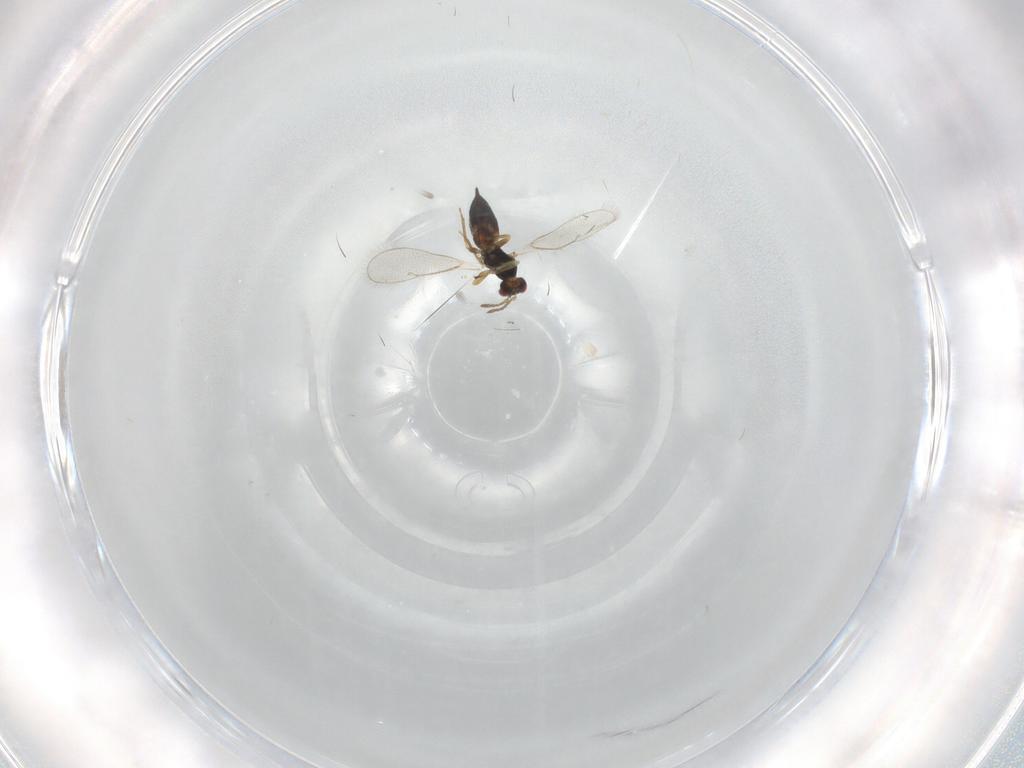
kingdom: Animalia
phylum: Arthropoda
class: Insecta
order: Hymenoptera
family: Eulophidae
